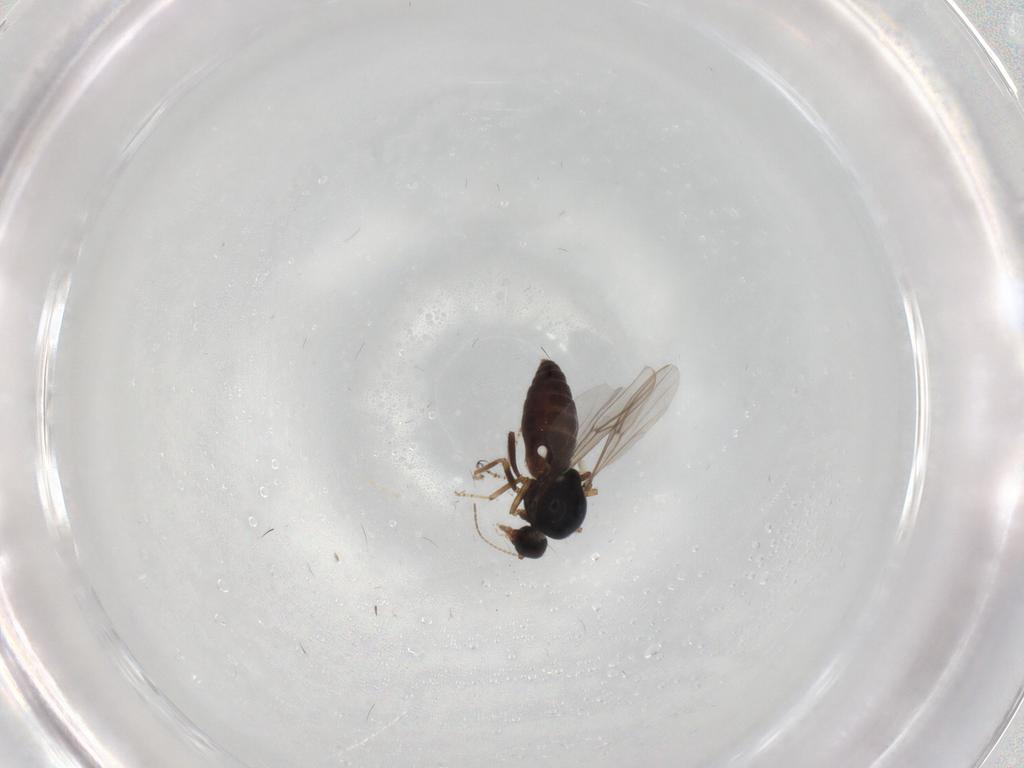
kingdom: Animalia
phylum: Arthropoda
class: Insecta
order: Diptera
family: Ceratopogonidae
